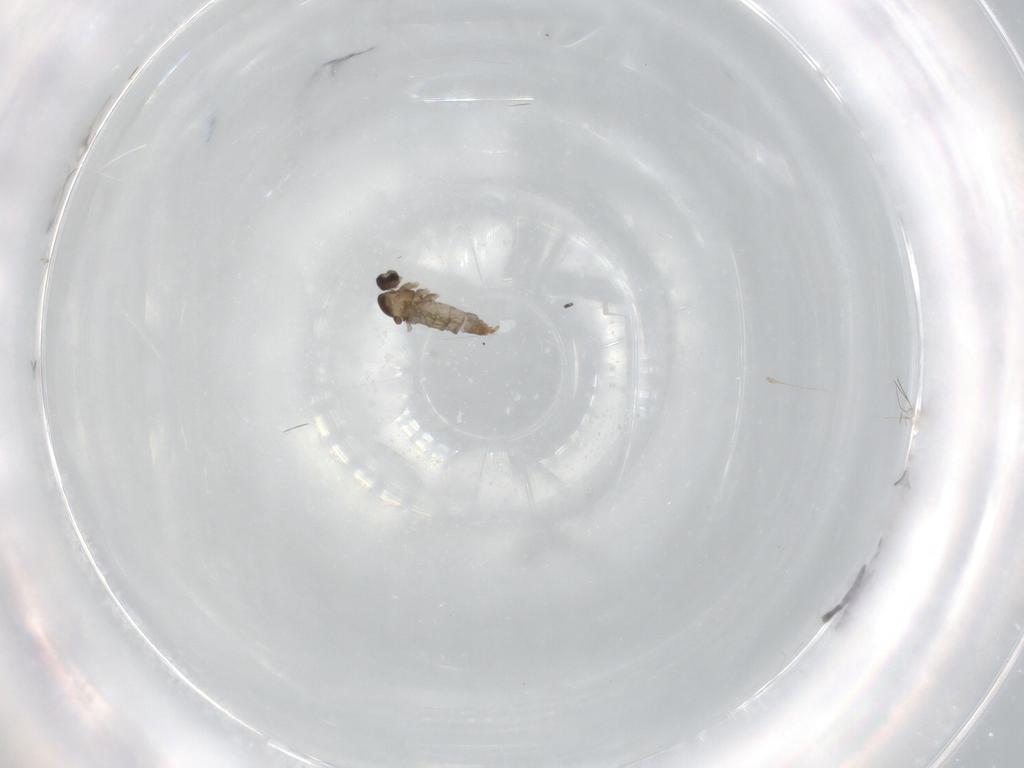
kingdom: Animalia
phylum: Arthropoda
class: Insecta
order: Diptera
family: Cecidomyiidae
